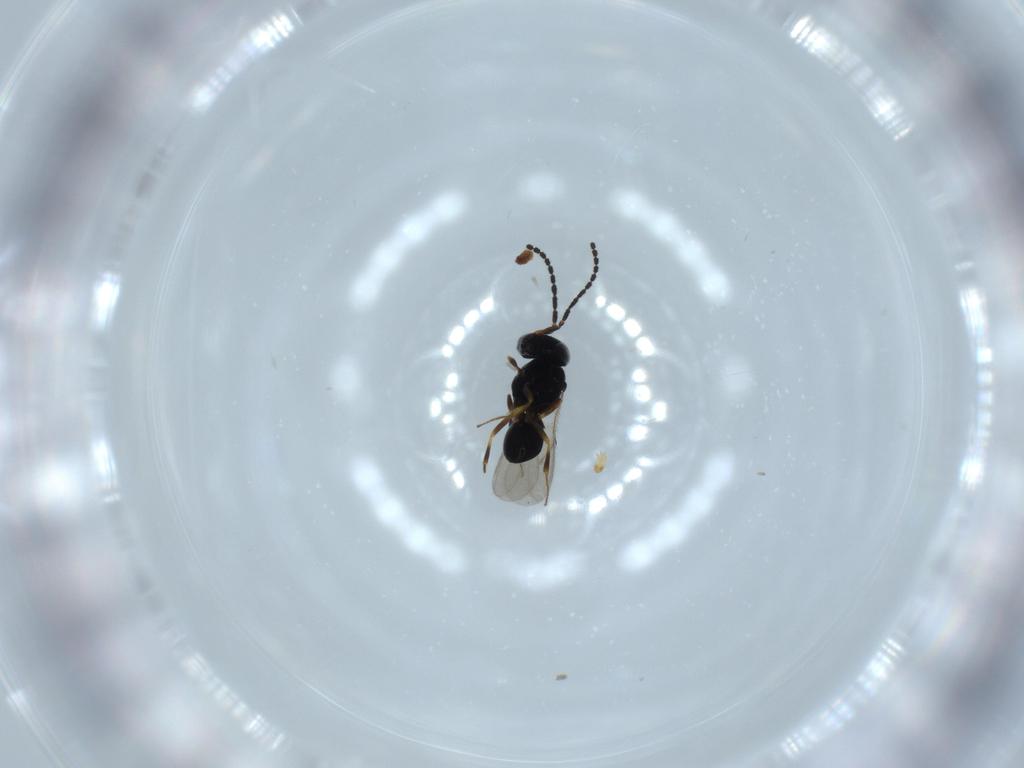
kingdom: Animalia
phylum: Arthropoda
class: Insecta
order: Hymenoptera
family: Scelionidae
